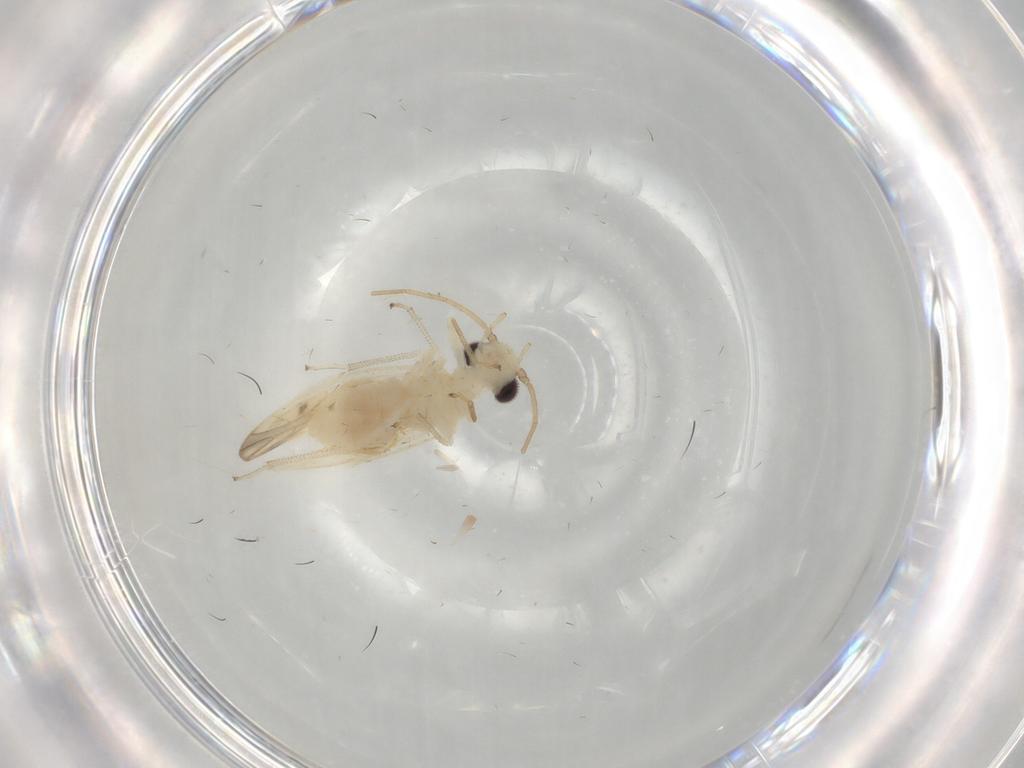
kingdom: Animalia
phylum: Arthropoda
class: Insecta
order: Psocodea
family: Caeciliusidae
